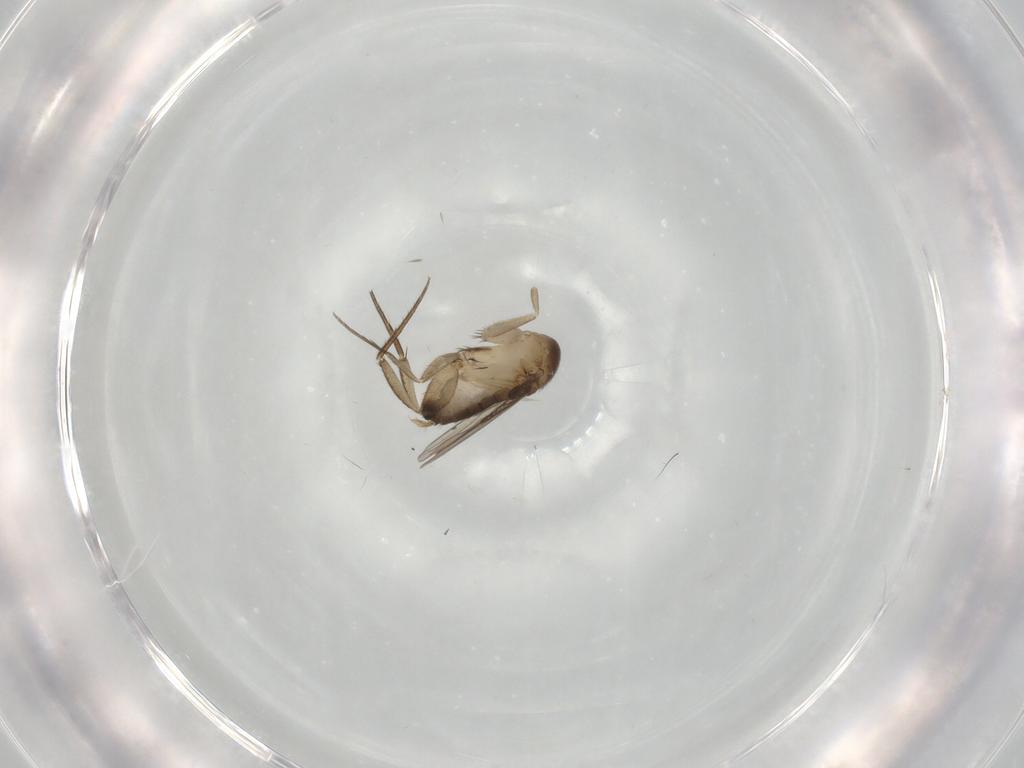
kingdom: Animalia
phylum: Arthropoda
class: Insecta
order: Diptera
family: Phoridae
